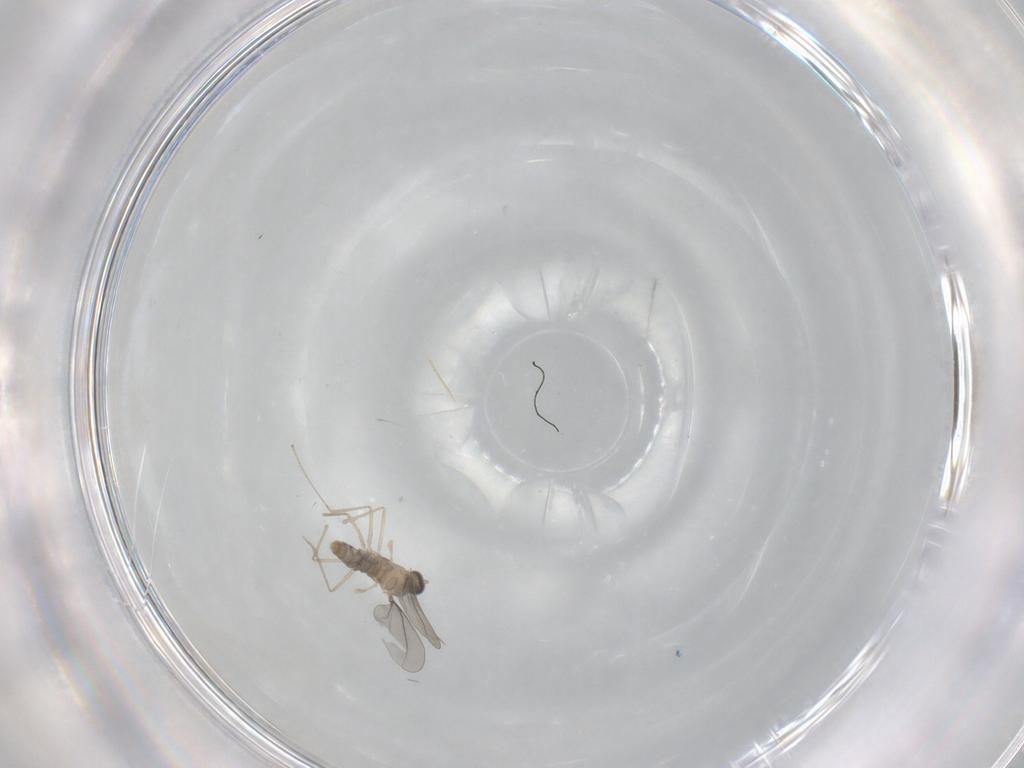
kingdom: Animalia
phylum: Arthropoda
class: Insecta
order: Diptera
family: Cecidomyiidae
